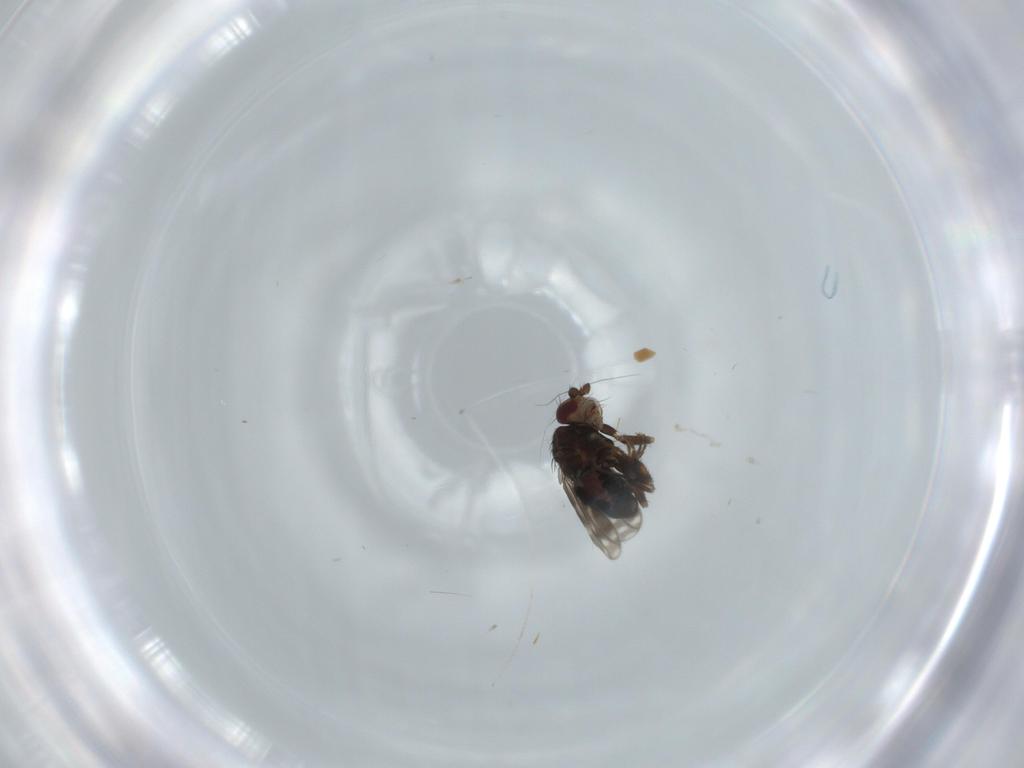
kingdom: Animalia
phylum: Arthropoda
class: Insecta
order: Diptera
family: Sphaeroceridae
